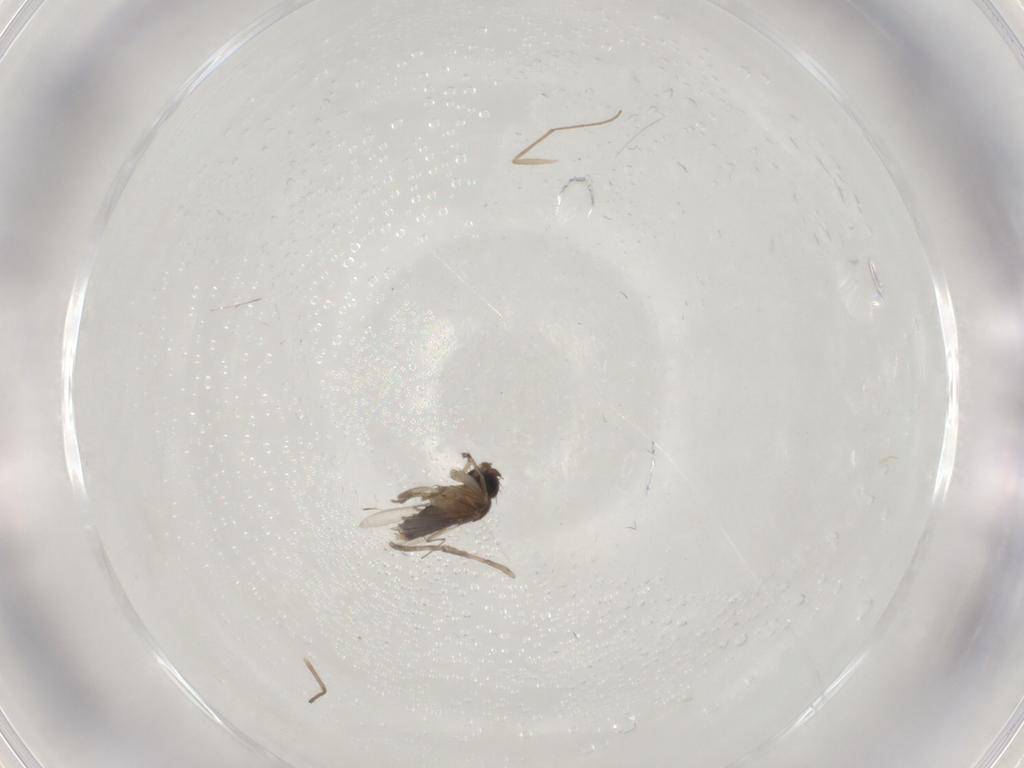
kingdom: Animalia
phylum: Arthropoda
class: Insecta
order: Diptera
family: Phoridae
